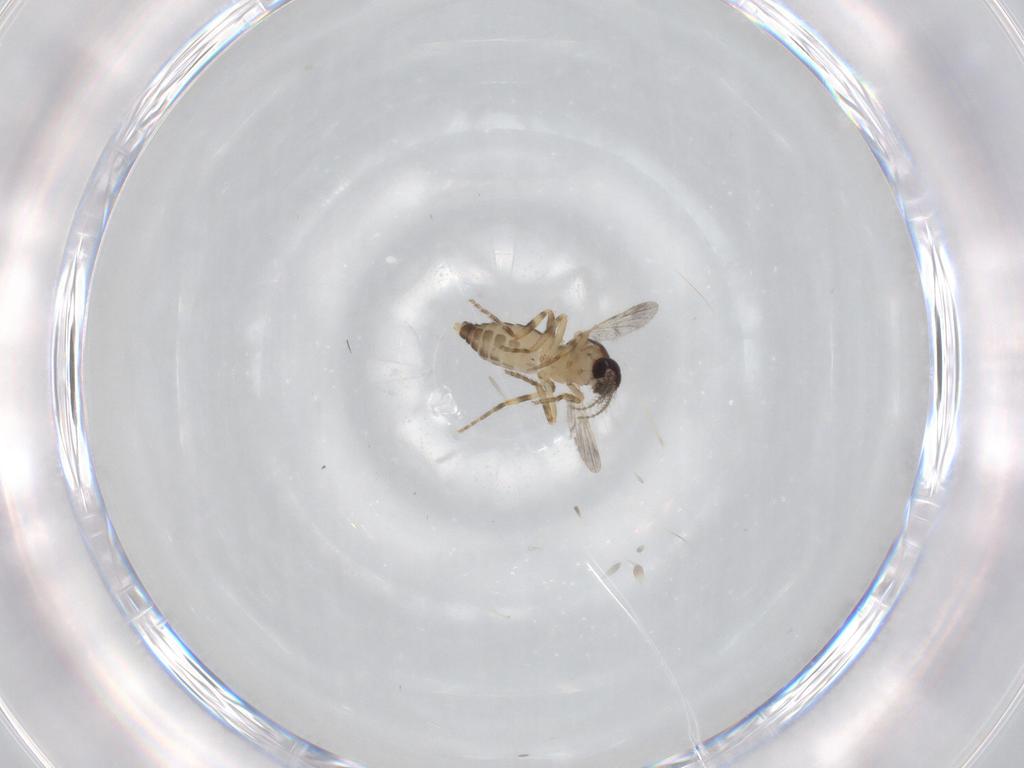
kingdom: Animalia
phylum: Arthropoda
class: Insecta
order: Diptera
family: Ceratopogonidae
